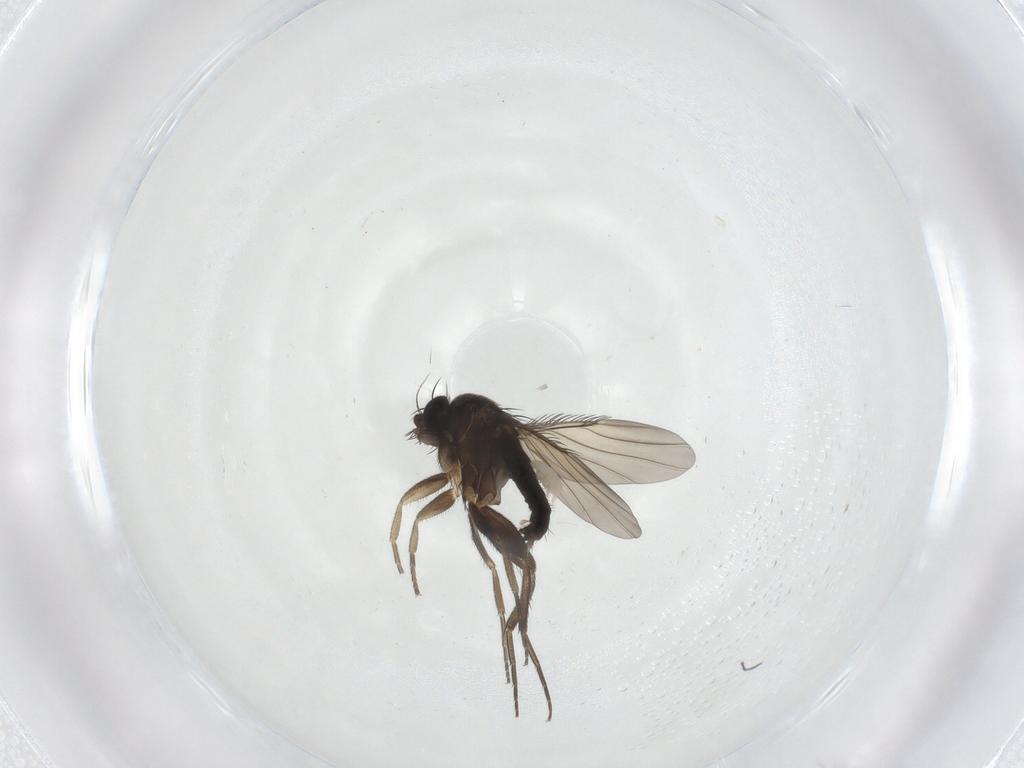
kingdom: Animalia
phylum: Arthropoda
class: Insecta
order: Diptera
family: Phoridae
